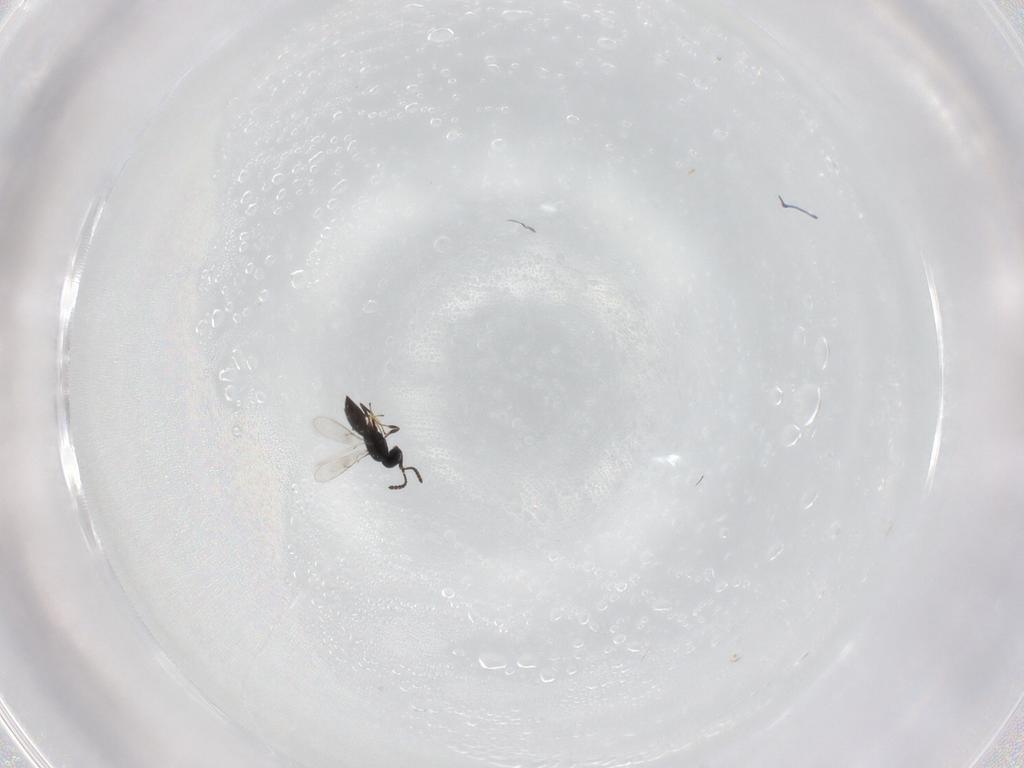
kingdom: Animalia
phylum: Arthropoda
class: Insecta
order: Hymenoptera
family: Scelionidae
